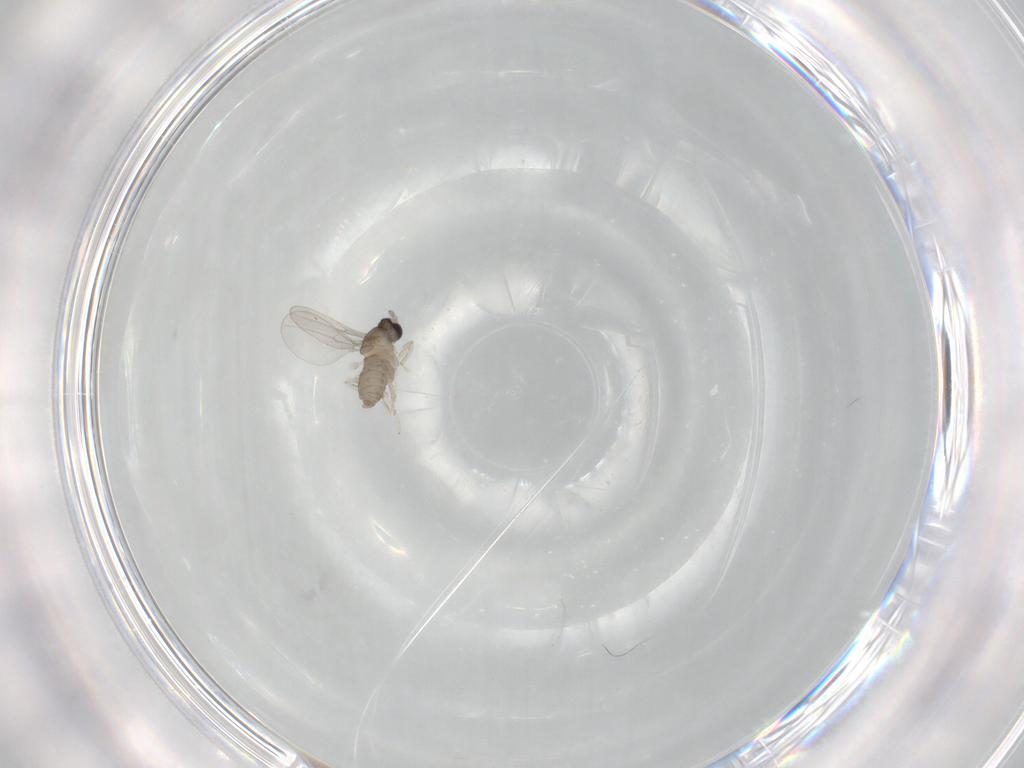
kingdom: Animalia
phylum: Arthropoda
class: Insecta
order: Diptera
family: Cecidomyiidae
